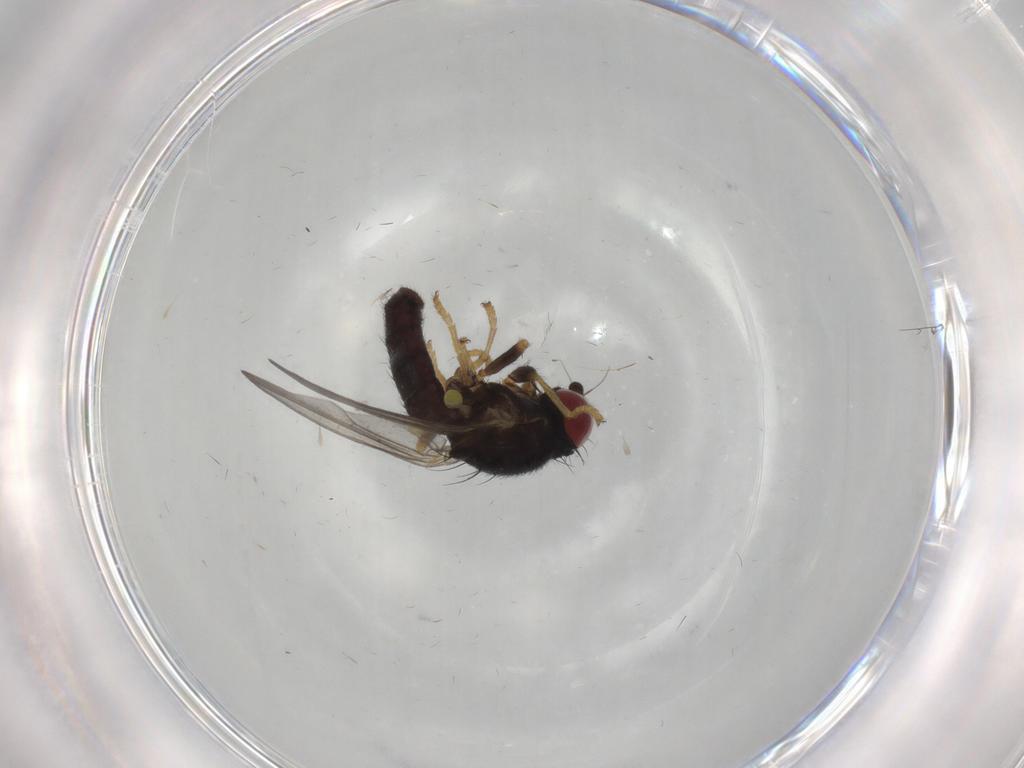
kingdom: Animalia
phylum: Arthropoda
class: Insecta
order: Diptera
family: Chamaemyiidae
